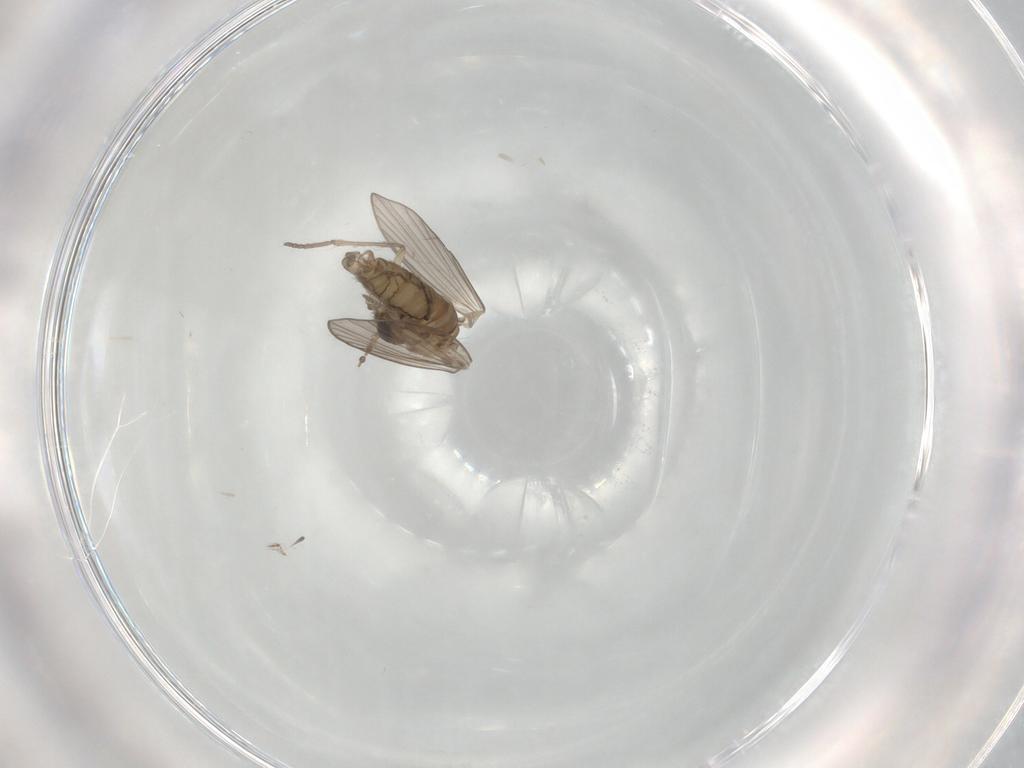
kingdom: Animalia
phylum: Arthropoda
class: Insecta
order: Diptera
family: Psychodidae
